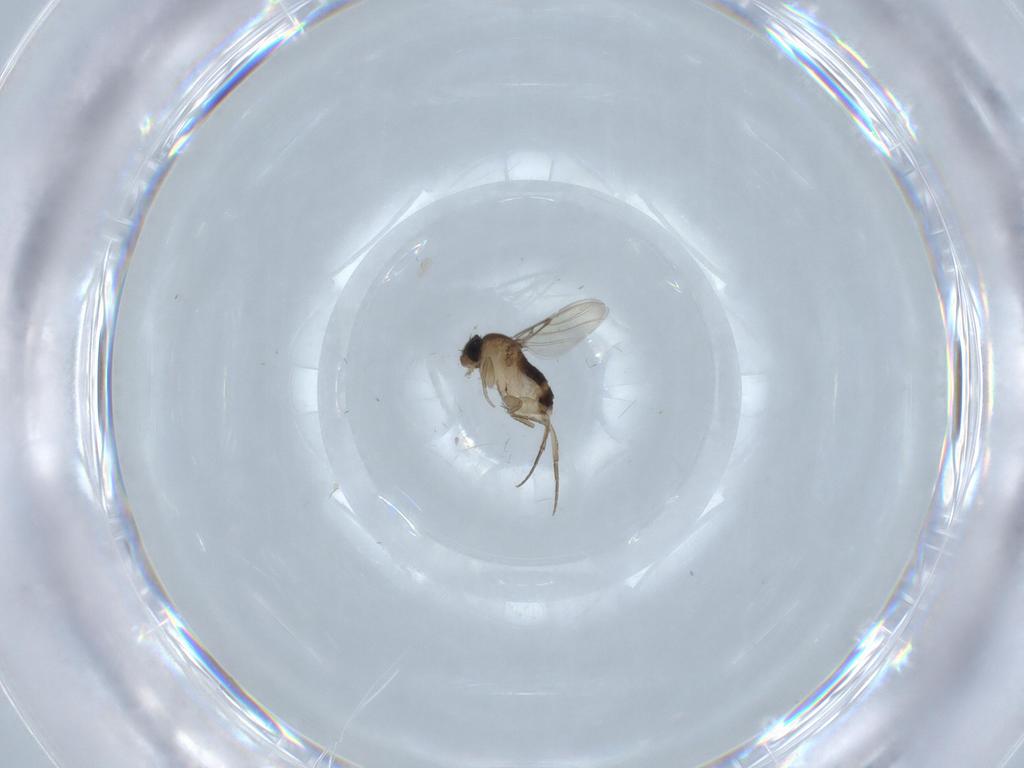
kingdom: Animalia
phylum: Arthropoda
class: Insecta
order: Diptera
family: Phoridae
